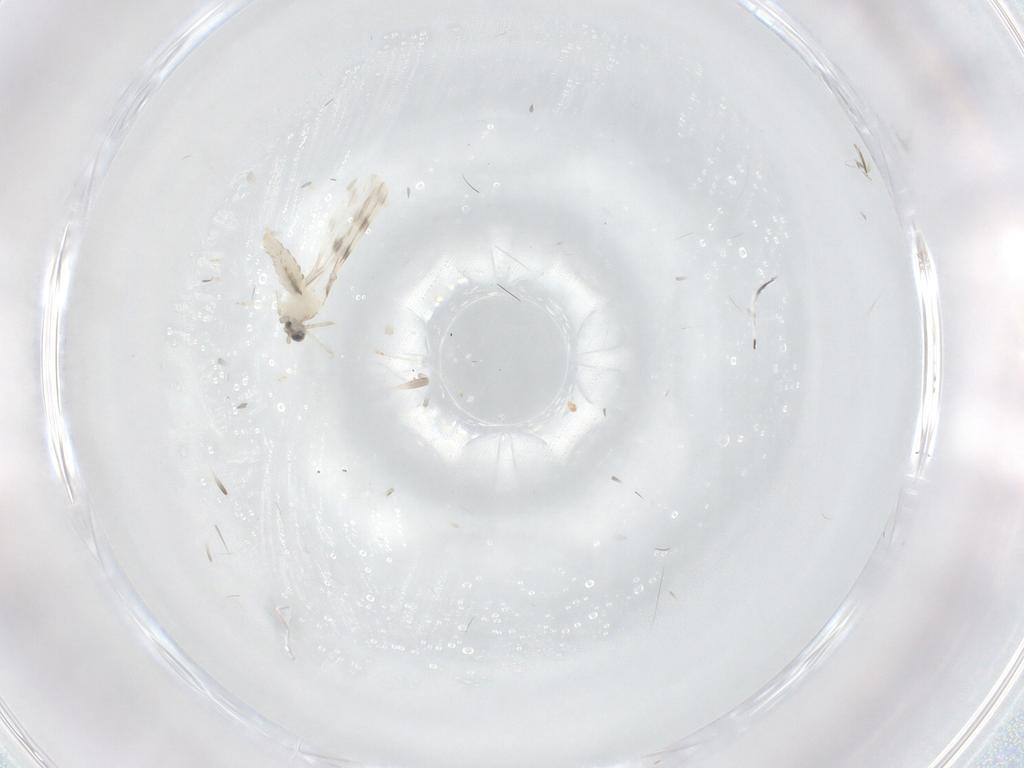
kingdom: Animalia
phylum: Arthropoda
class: Insecta
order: Diptera
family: Cecidomyiidae
